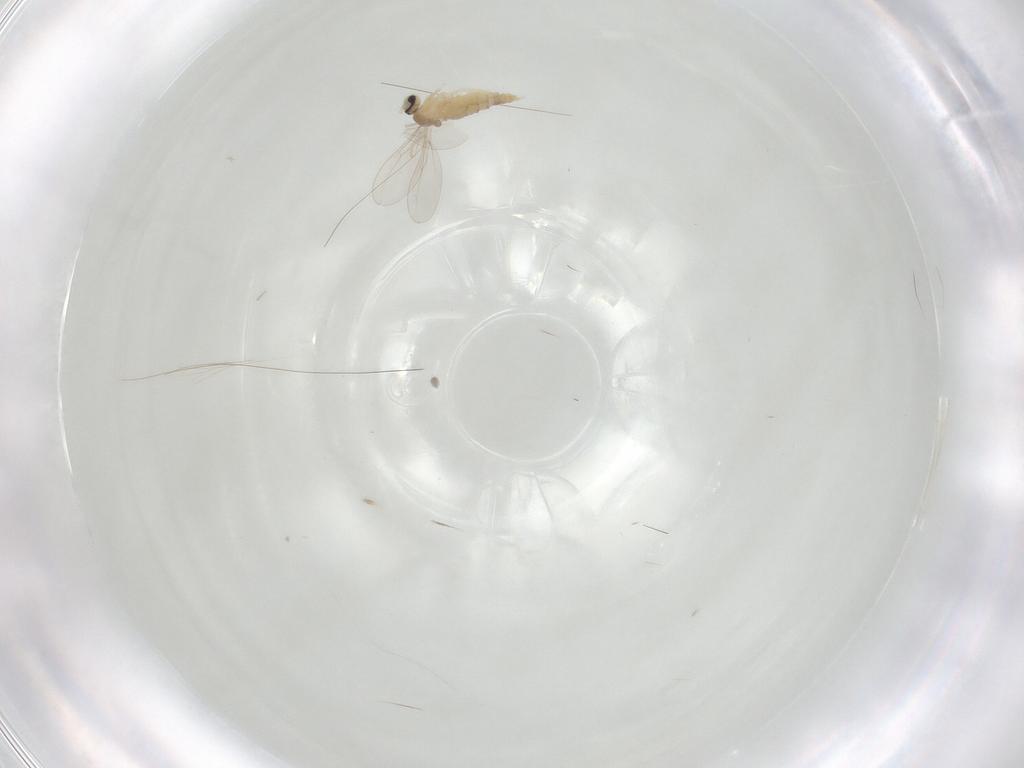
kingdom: Animalia
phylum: Arthropoda
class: Insecta
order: Diptera
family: Cecidomyiidae
